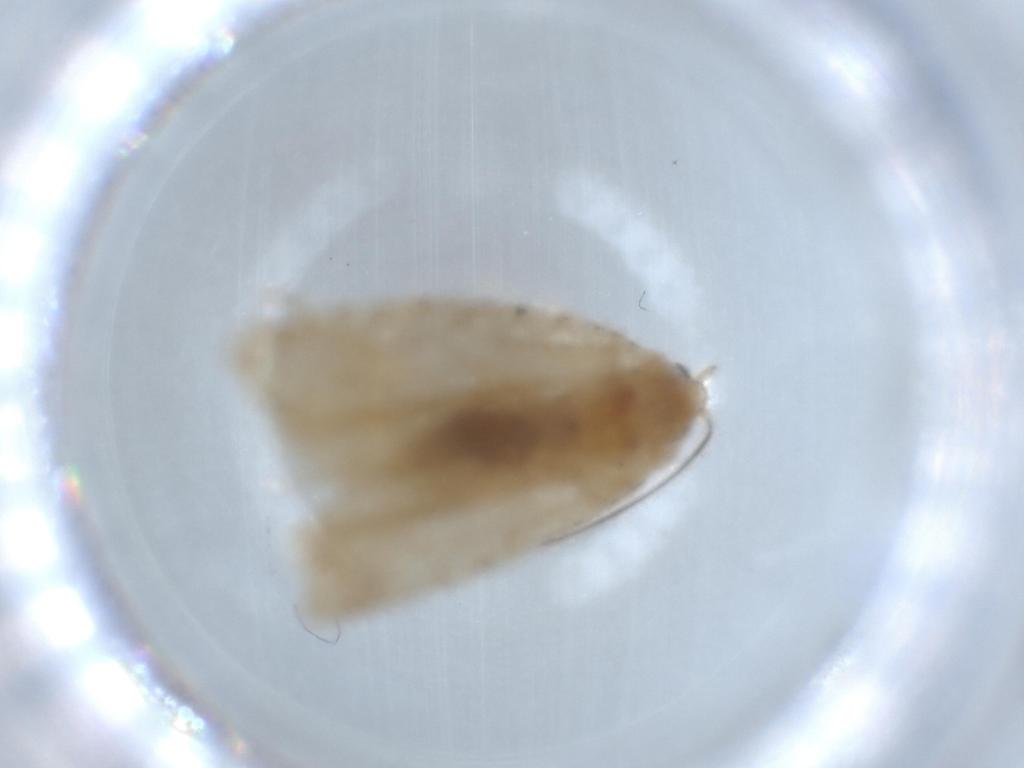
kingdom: Animalia
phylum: Arthropoda
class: Insecta
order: Lepidoptera
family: Tortricidae
